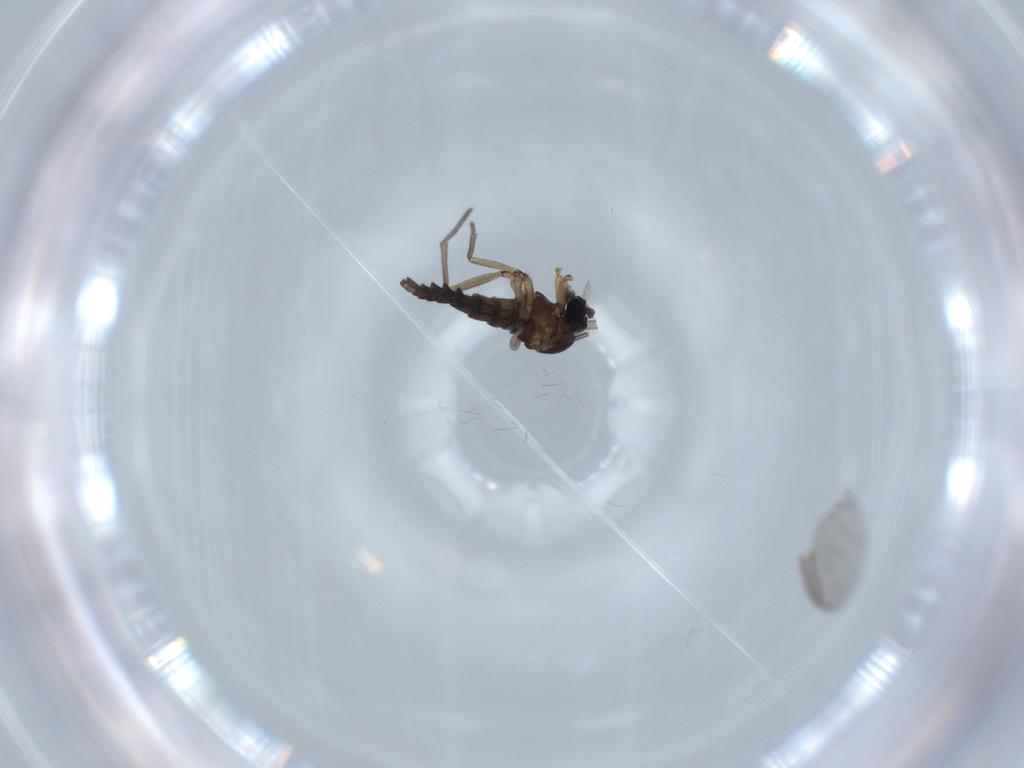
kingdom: Animalia
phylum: Arthropoda
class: Insecta
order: Diptera
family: Sciaridae
